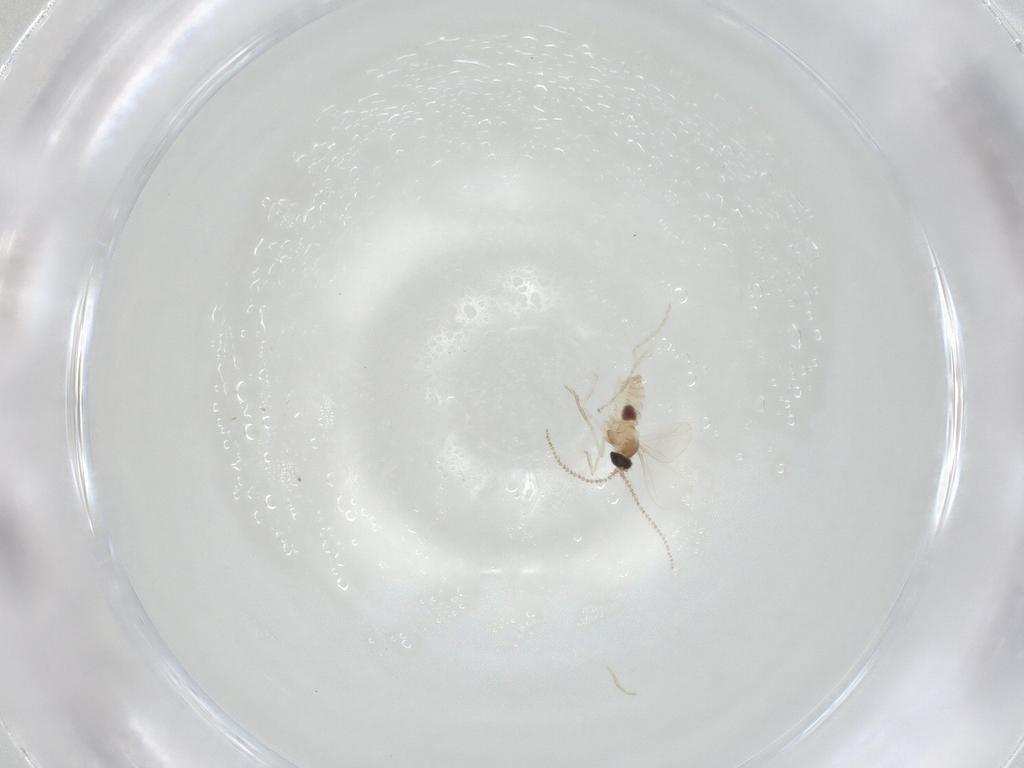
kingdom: Animalia
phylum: Arthropoda
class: Insecta
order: Diptera
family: Cecidomyiidae
